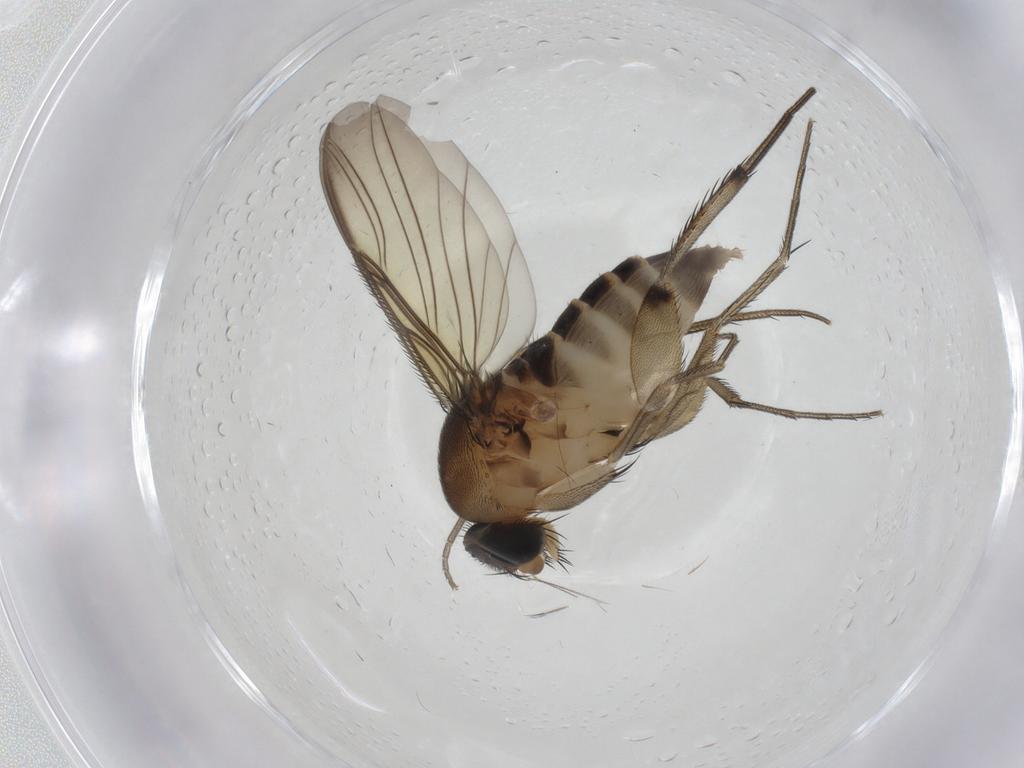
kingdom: Animalia
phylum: Arthropoda
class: Insecta
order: Diptera
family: Phoridae
